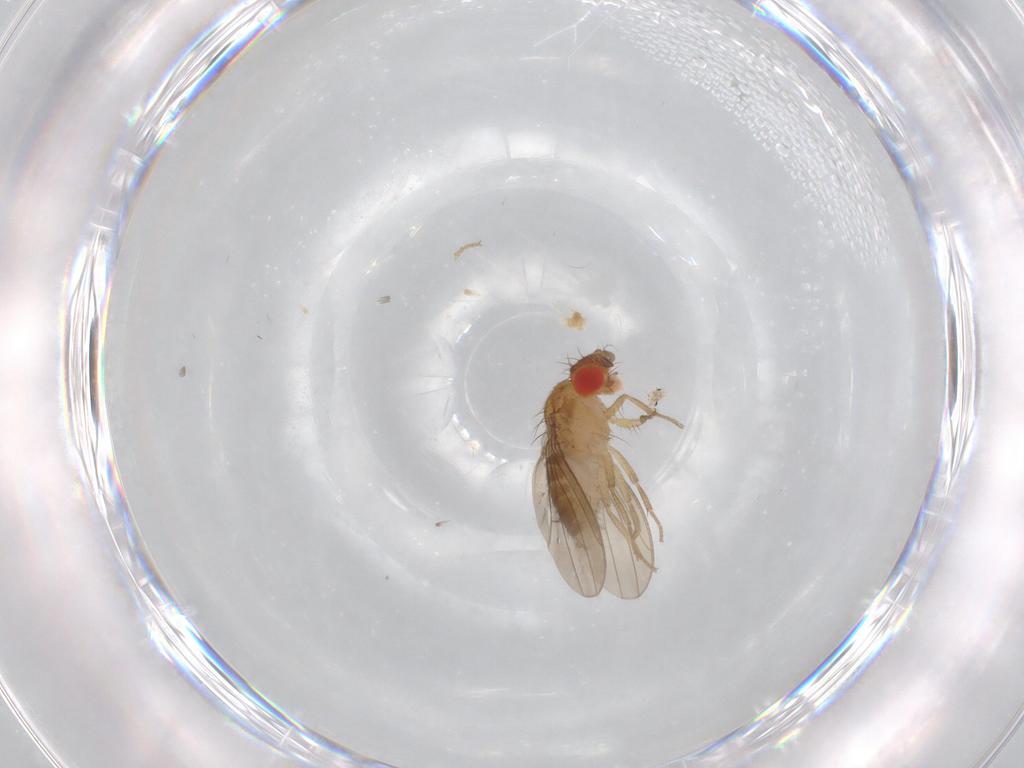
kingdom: Animalia
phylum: Arthropoda
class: Insecta
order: Diptera
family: Drosophilidae
